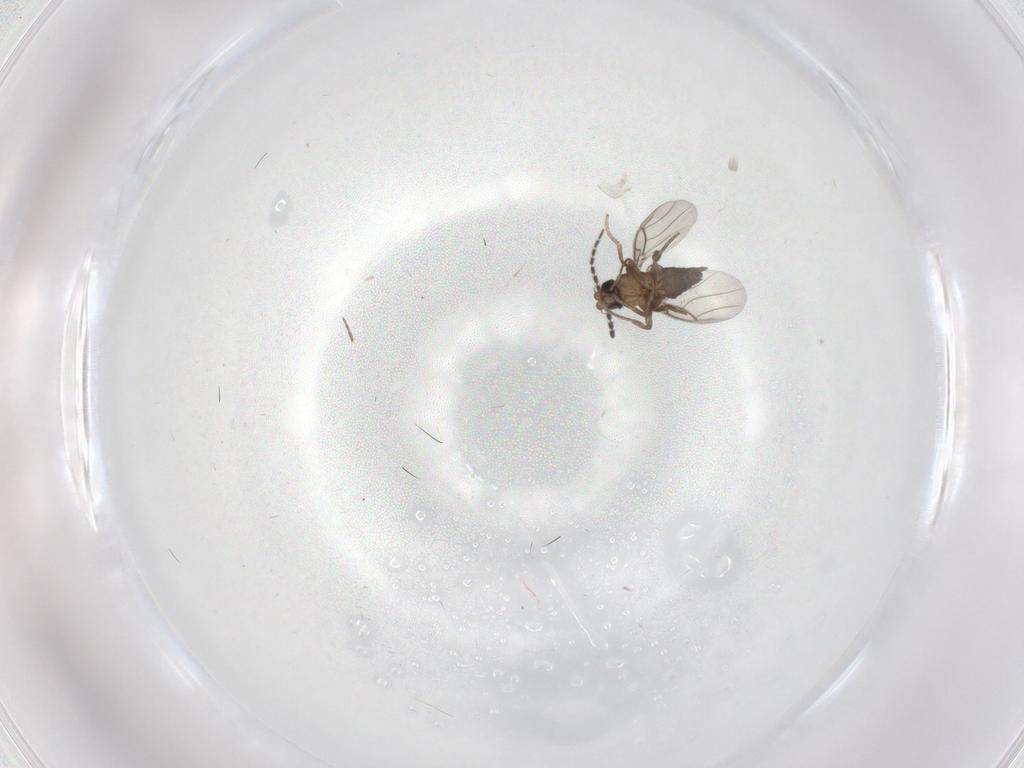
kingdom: Animalia
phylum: Arthropoda
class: Insecta
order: Diptera
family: Phoridae
